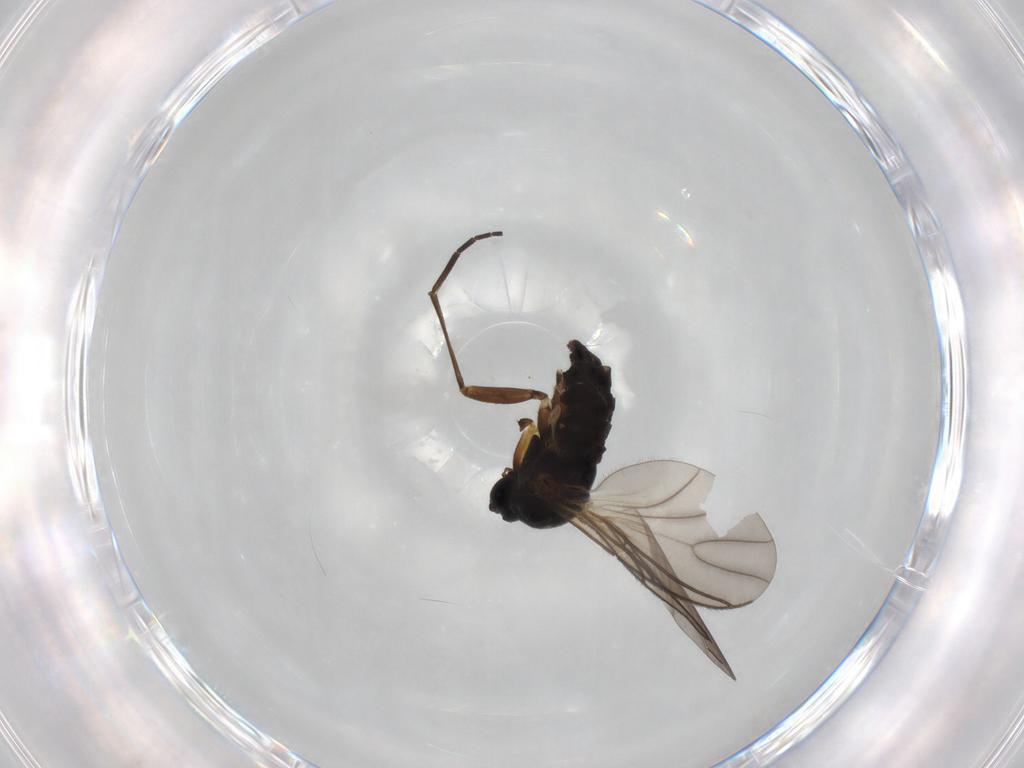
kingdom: Animalia
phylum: Arthropoda
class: Insecta
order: Diptera
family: Sciaridae
